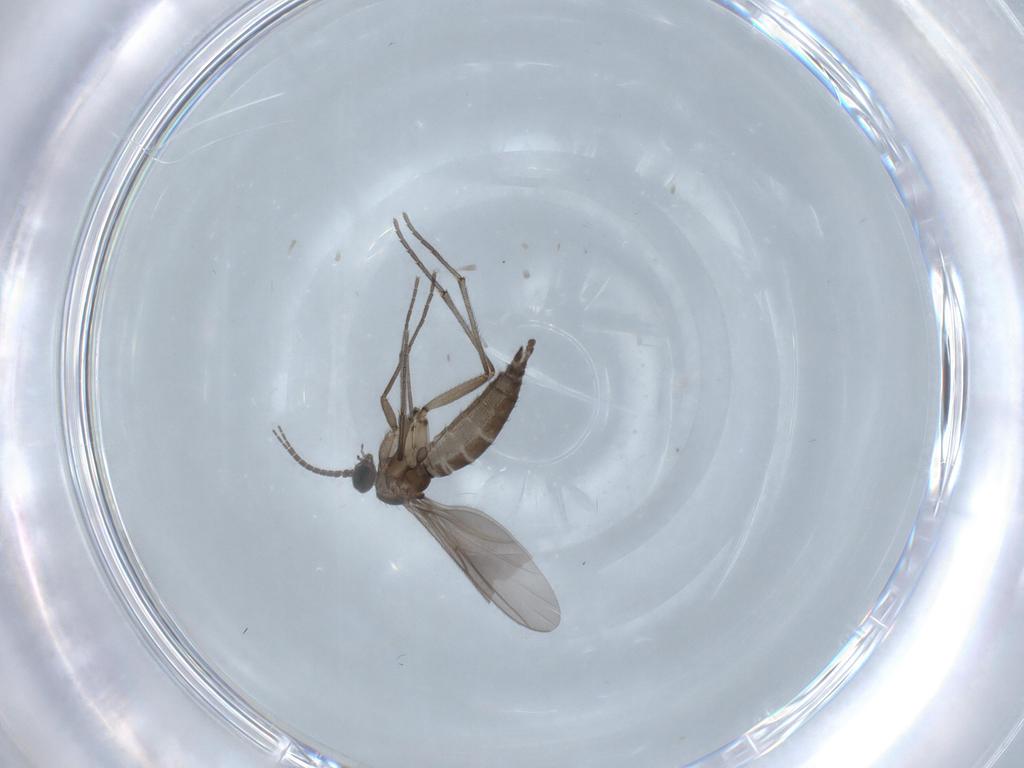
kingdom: Animalia
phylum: Arthropoda
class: Insecta
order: Diptera
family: Sciaridae
